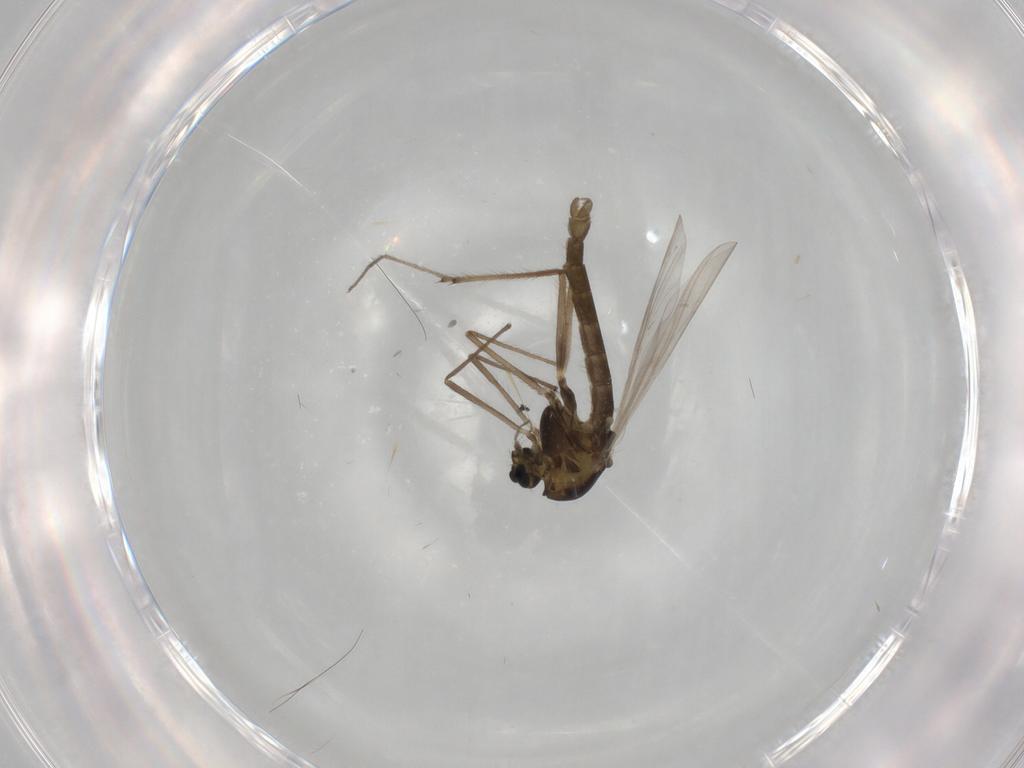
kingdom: Animalia
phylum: Arthropoda
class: Insecta
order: Diptera
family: Chironomidae
